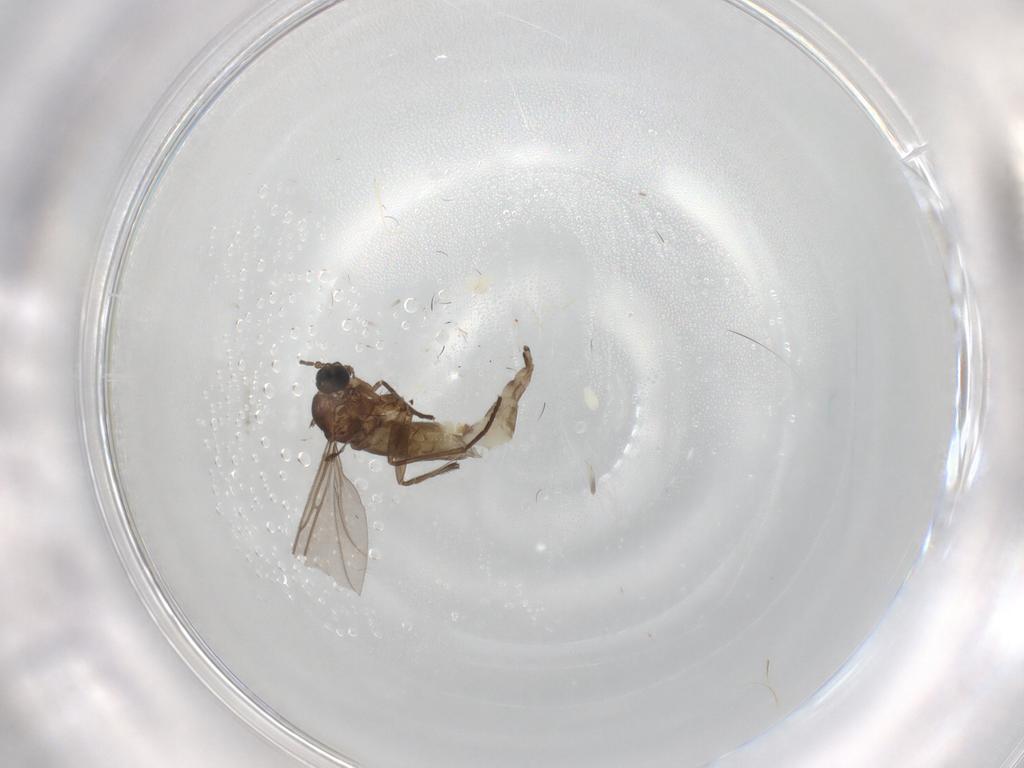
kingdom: Animalia
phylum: Arthropoda
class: Insecta
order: Diptera
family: Sciaridae
